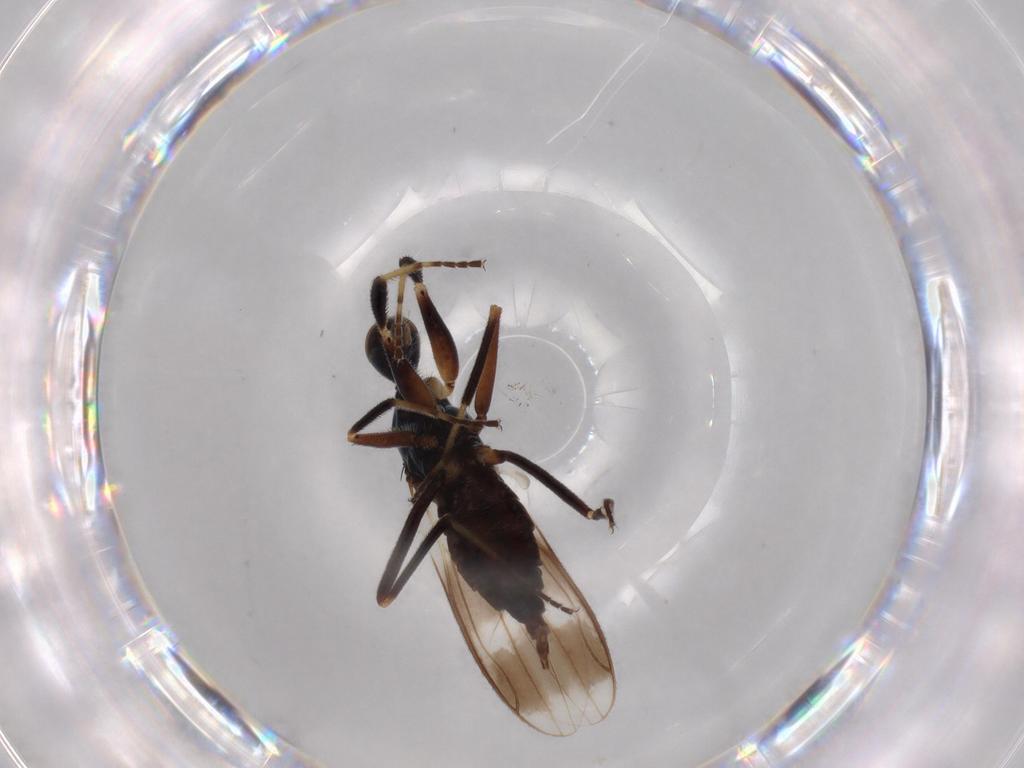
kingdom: Animalia
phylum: Arthropoda
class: Insecta
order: Diptera
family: Hybotidae
